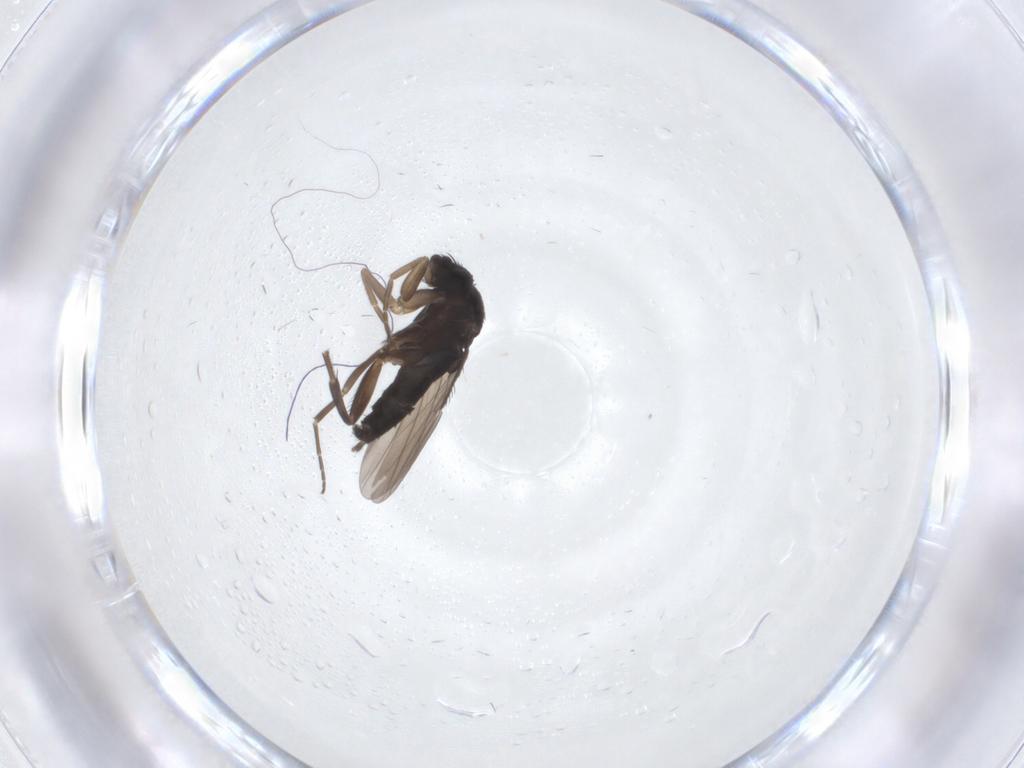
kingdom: Animalia
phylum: Arthropoda
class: Insecta
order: Diptera
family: Phoridae
